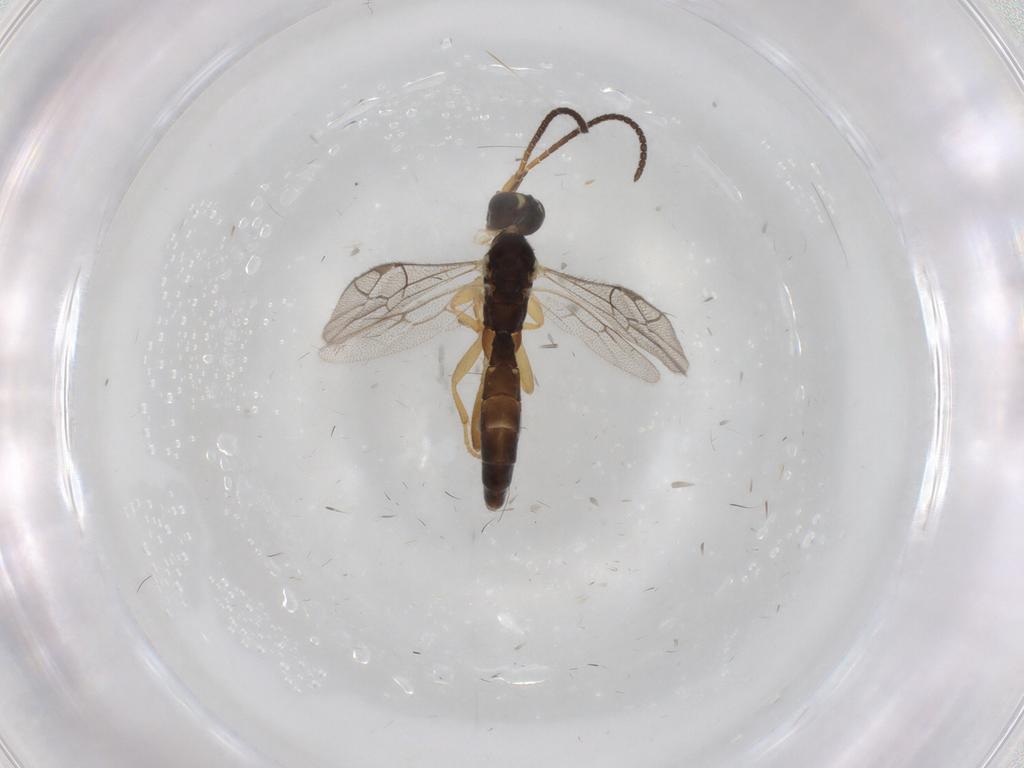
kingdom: Animalia
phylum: Arthropoda
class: Insecta
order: Hymenoptera
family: Ichneumonidae
